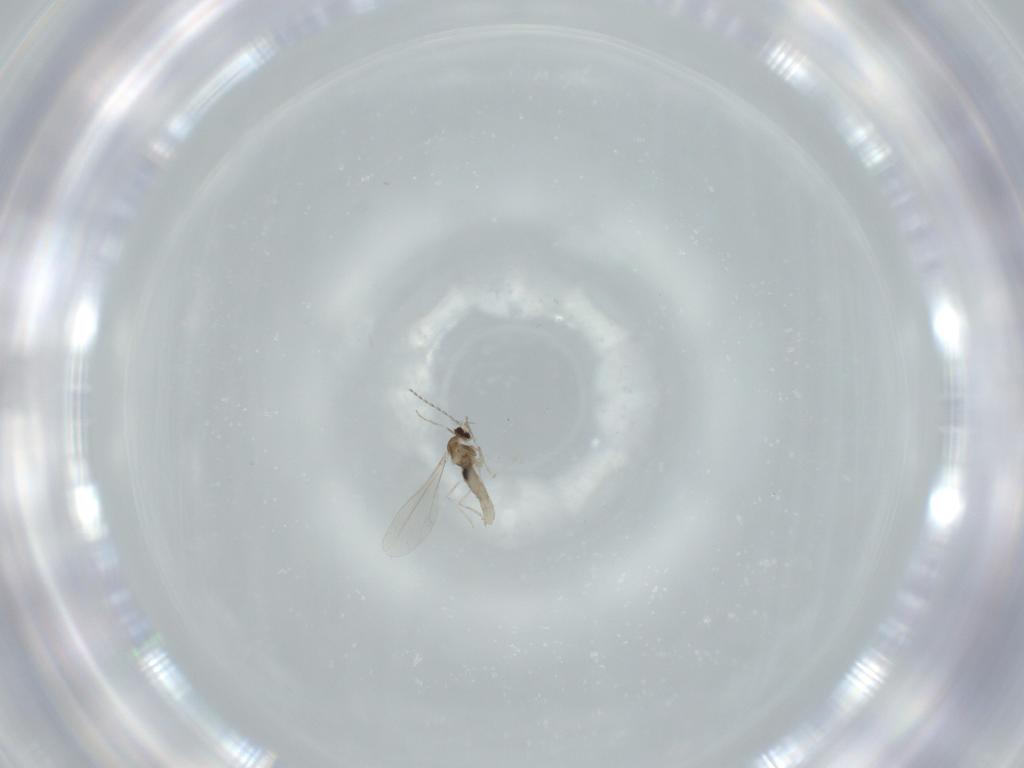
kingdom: Animalia
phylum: Arthropoda
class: Insecta
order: Diptera
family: Cecidomyiidae
